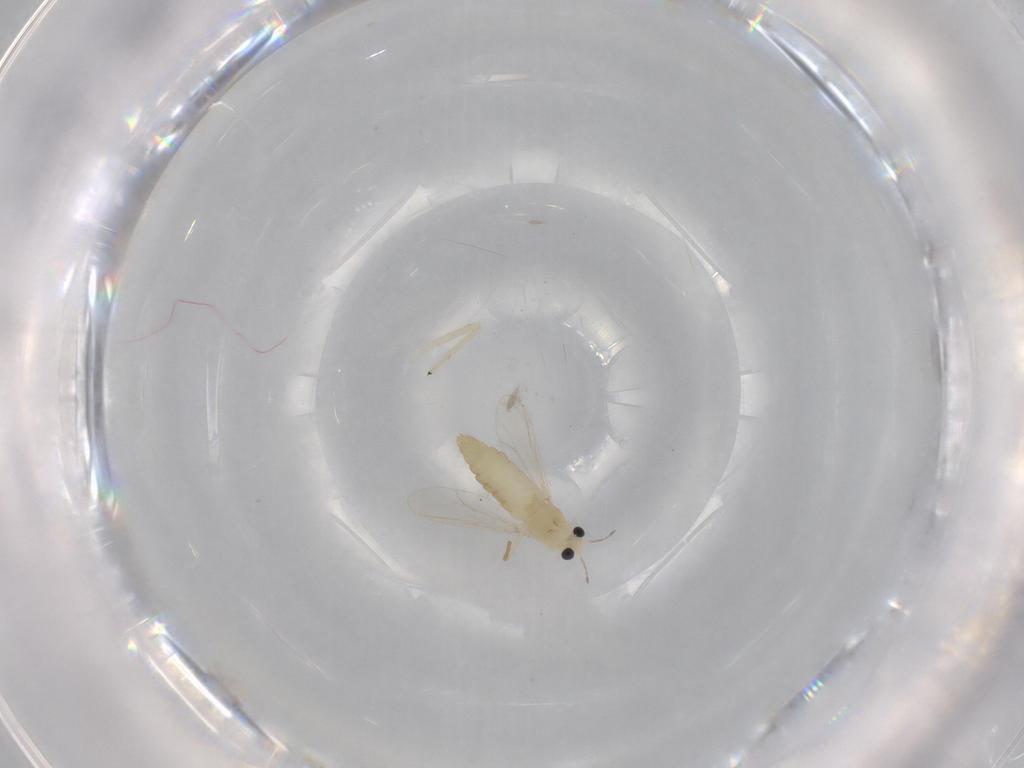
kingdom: Animalia
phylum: Arthropoda
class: Insecta
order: Diptera
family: Chironomidae
